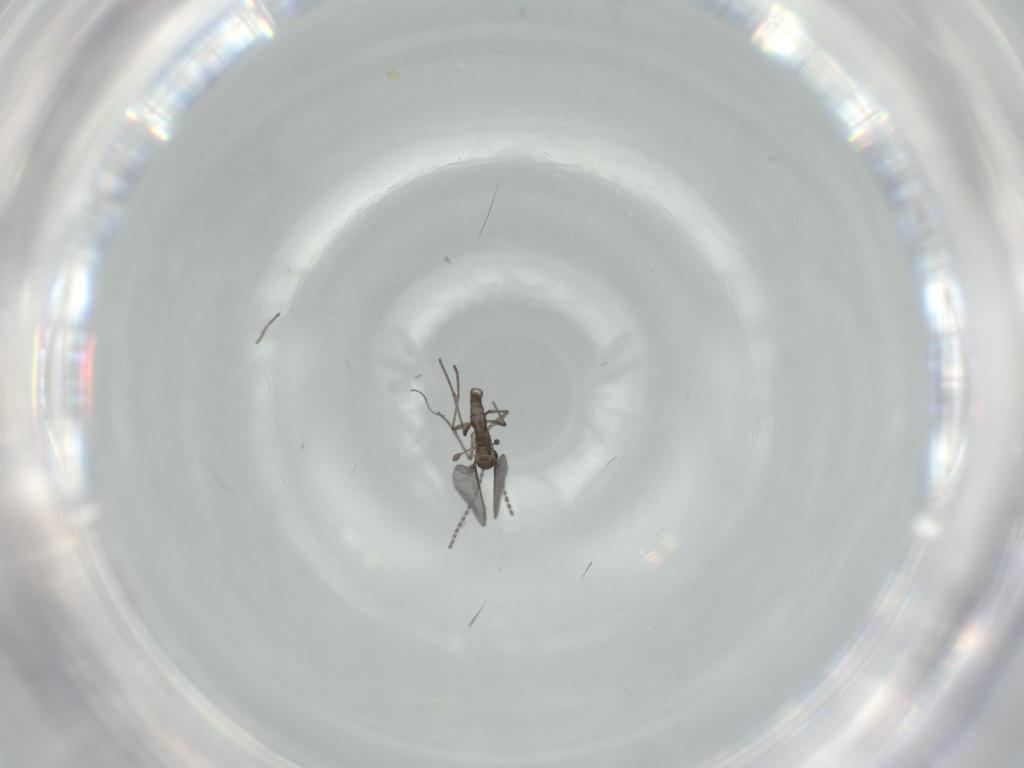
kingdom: Animalia
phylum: Arthropoda
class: Insecta
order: Diptera
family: Sciaridae
